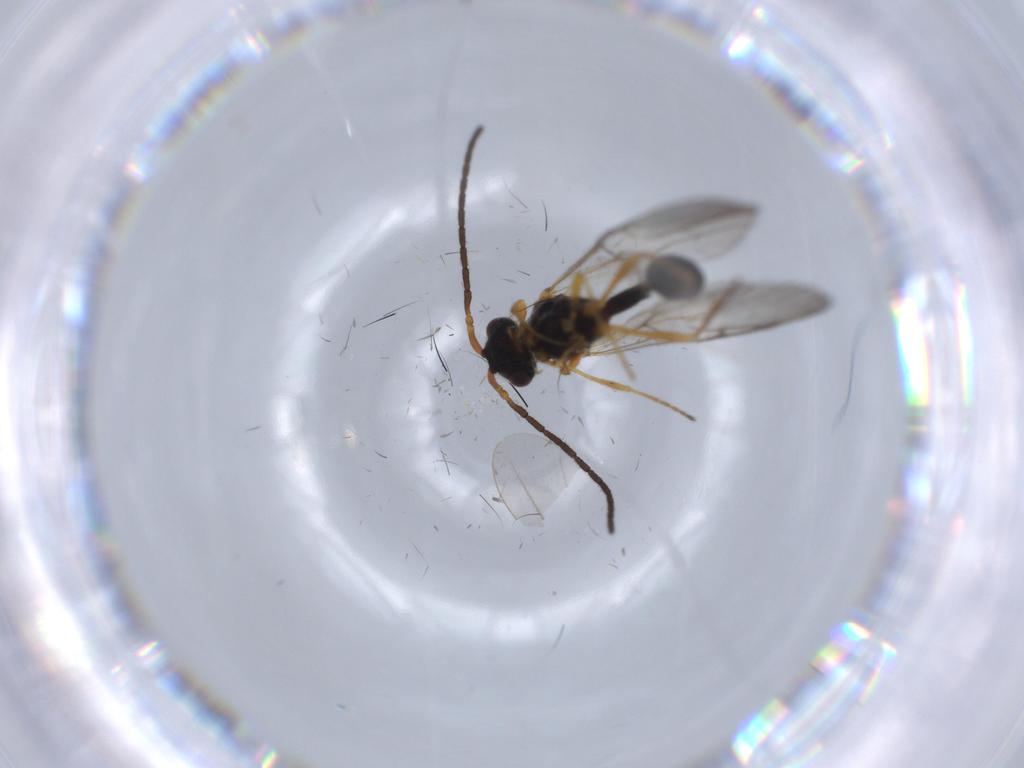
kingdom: Animalia
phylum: Arthropoda
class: Insecta
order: Hymenoptera
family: Diapriidae
